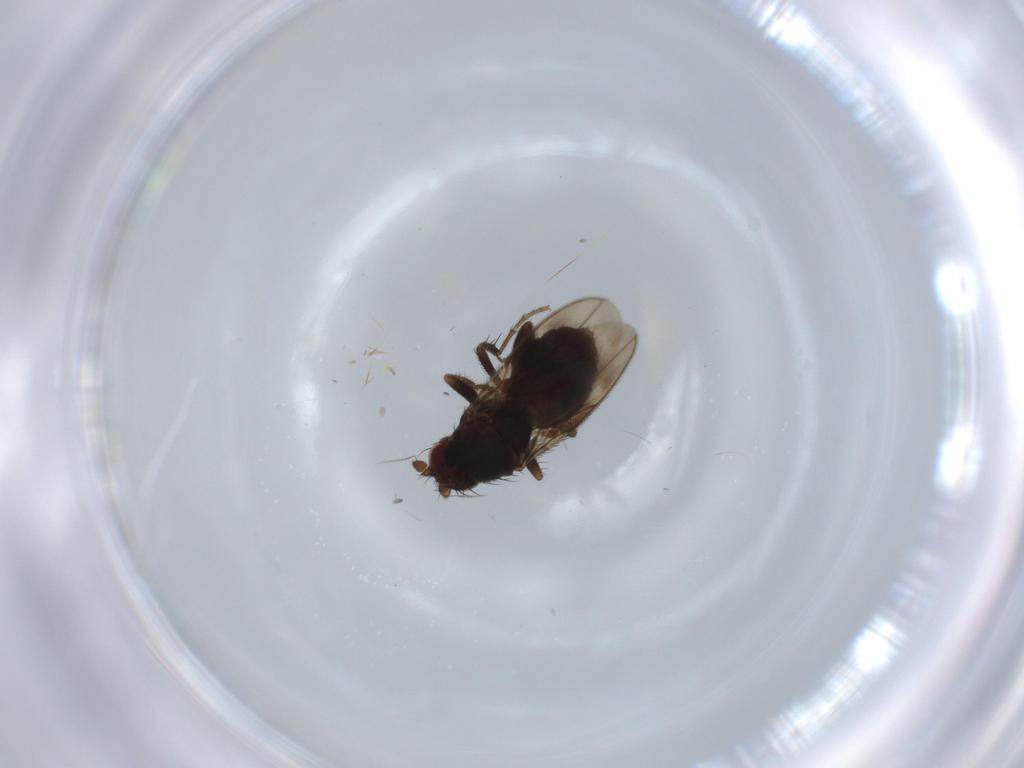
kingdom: Animalia
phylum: Arthropoda
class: Insecta
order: Diptera
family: Sphaeroceridae
